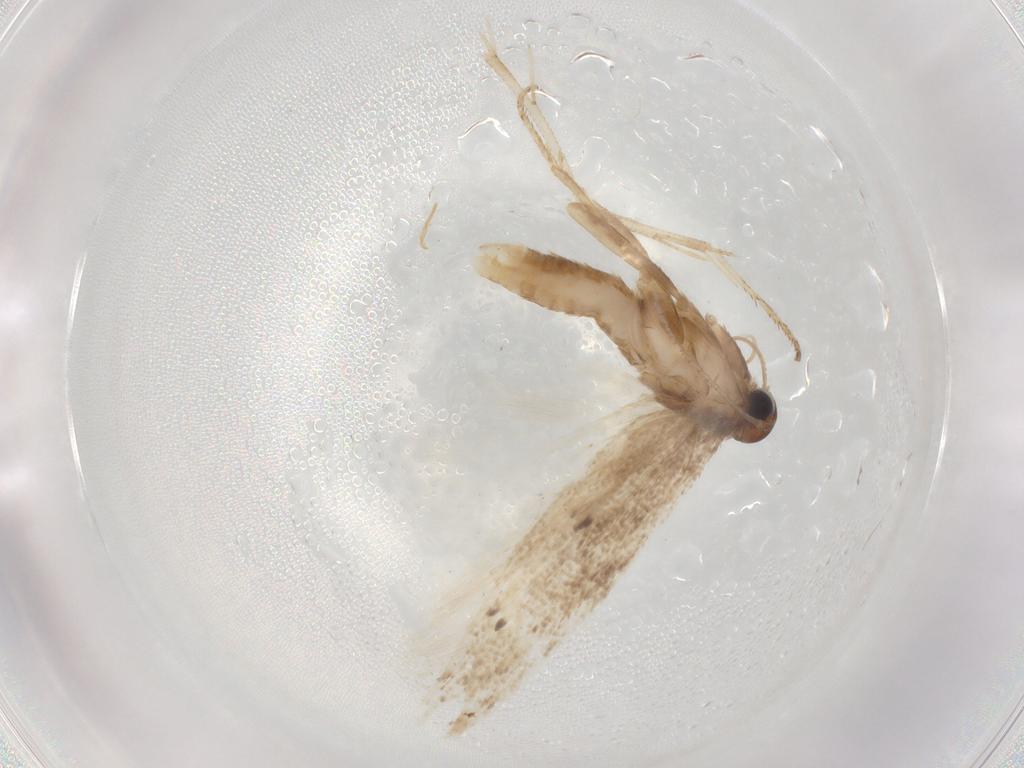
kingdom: Animalia
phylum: Arthropoda
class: Insecta
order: Lepidoptera
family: Gelechiidae
